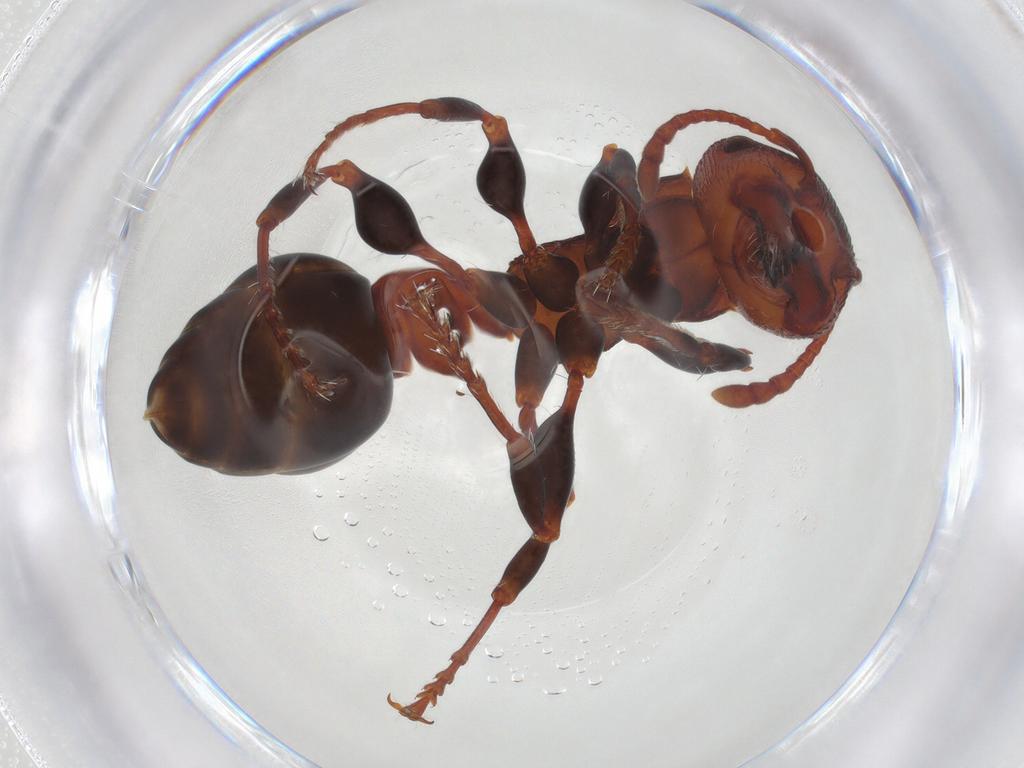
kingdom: Animalia
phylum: Arthropoda
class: Insecta
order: Hymenoptera
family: Formicidae
